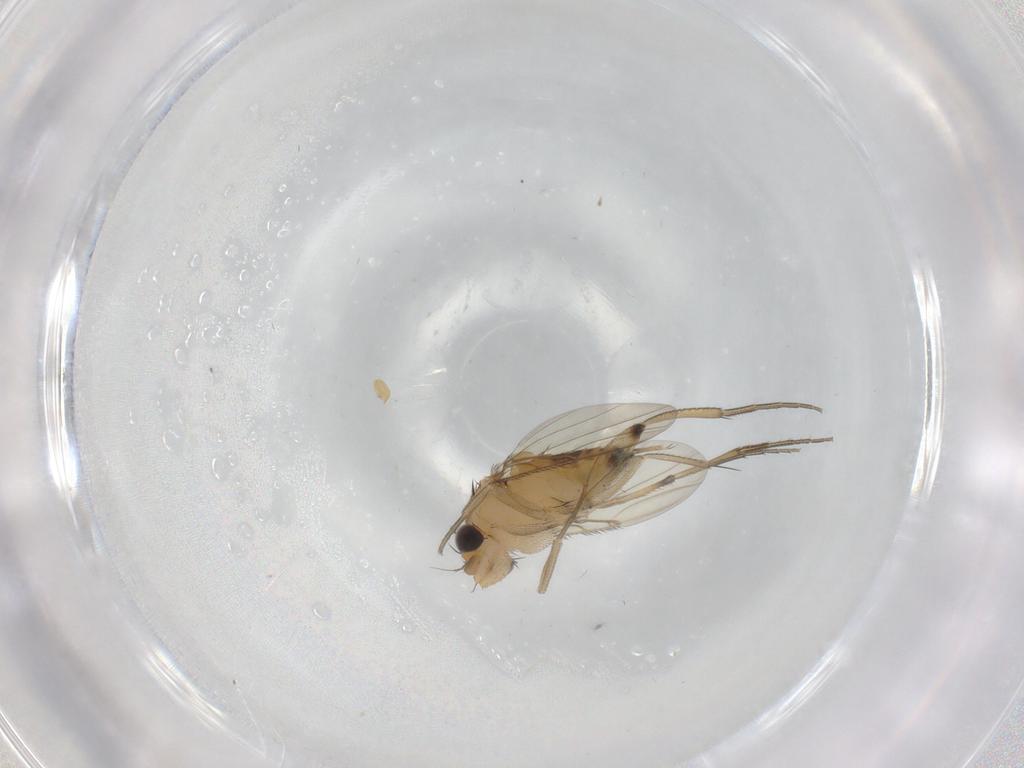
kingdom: Animalia
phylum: Arthropoda
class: Insecta
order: Diptera
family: Phoridae
